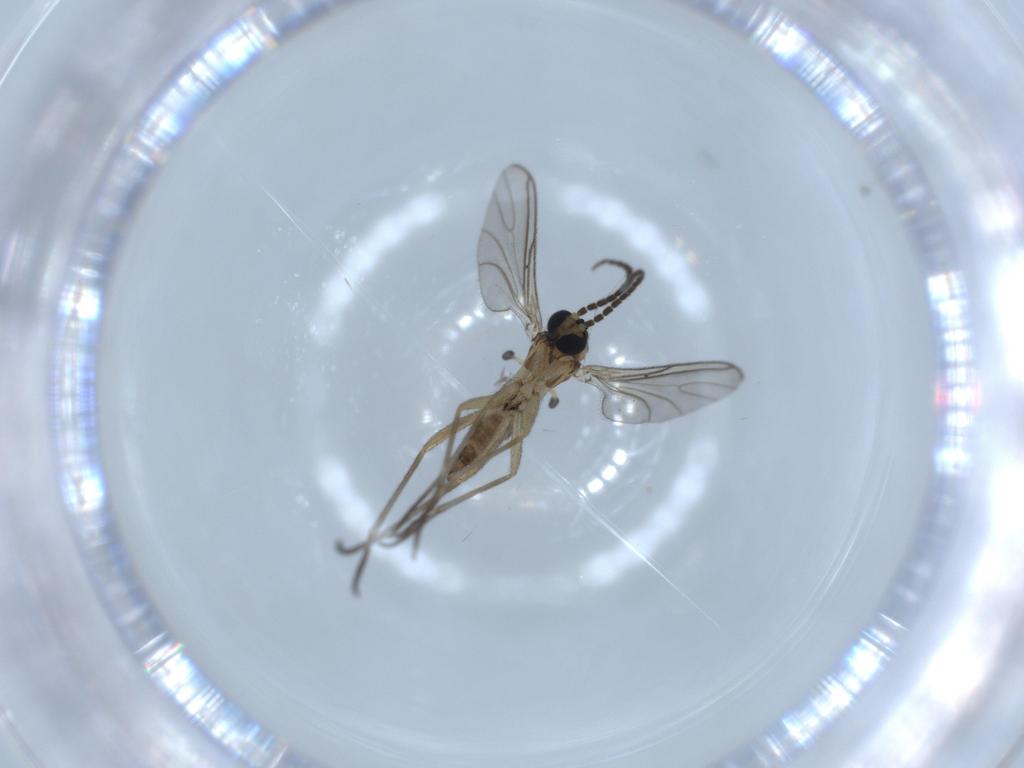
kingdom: Animalia
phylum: Arthropoda
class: Insecta
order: Diptera
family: Sciaridae
